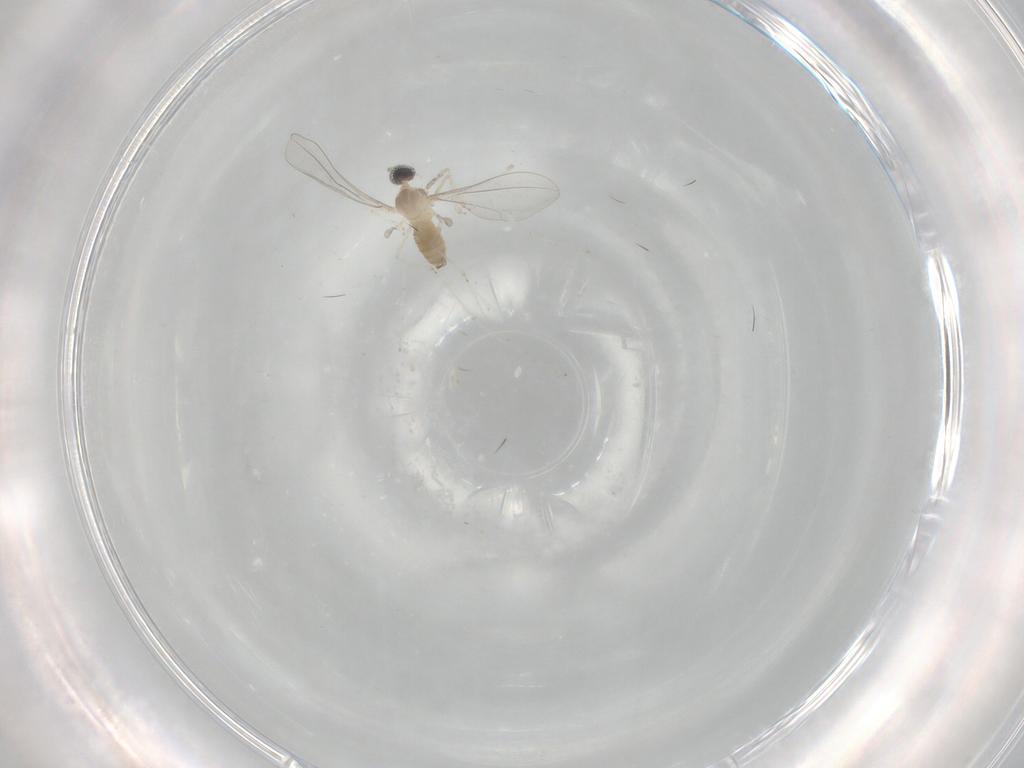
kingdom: Animalia
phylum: Arthropoda
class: Insecta
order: Diptera
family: Cecidomyiidae
